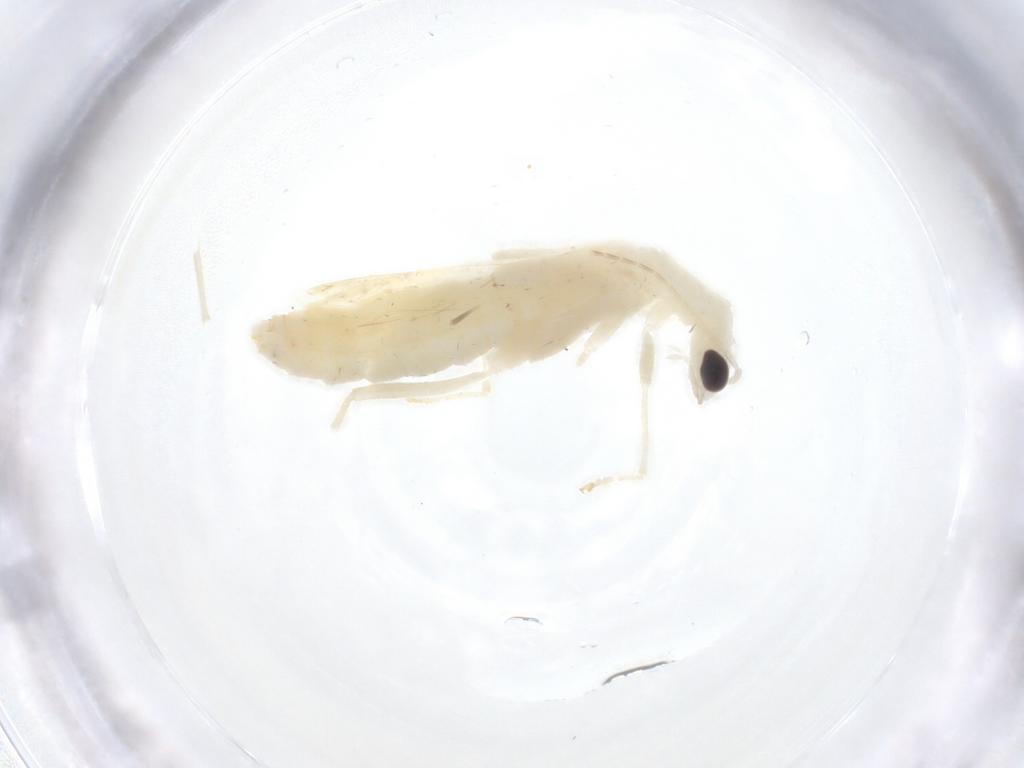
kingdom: Animalia
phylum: Arthropoda
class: Insecta
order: Coleoptera
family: Cantharidae
